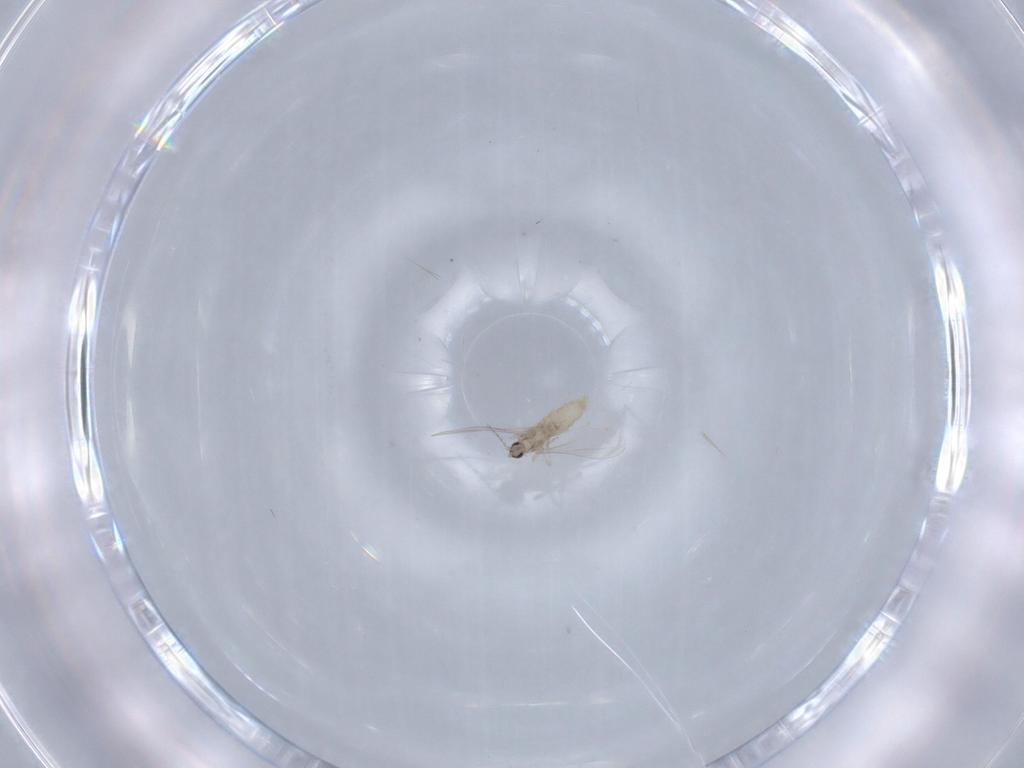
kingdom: Animalia
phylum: Arthropoda
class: Insecta
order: Diptera
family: Cecidomyiidae
